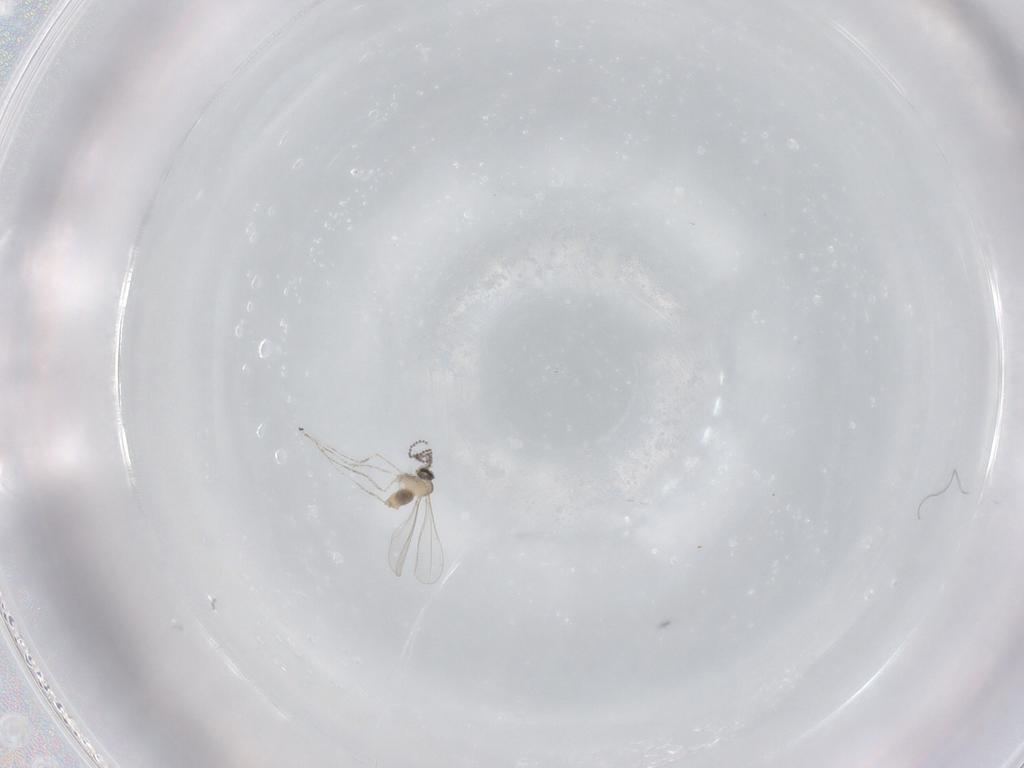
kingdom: Animalia
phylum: Arthropoda
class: Insecta
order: Diptera
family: Cecidomyiidae
